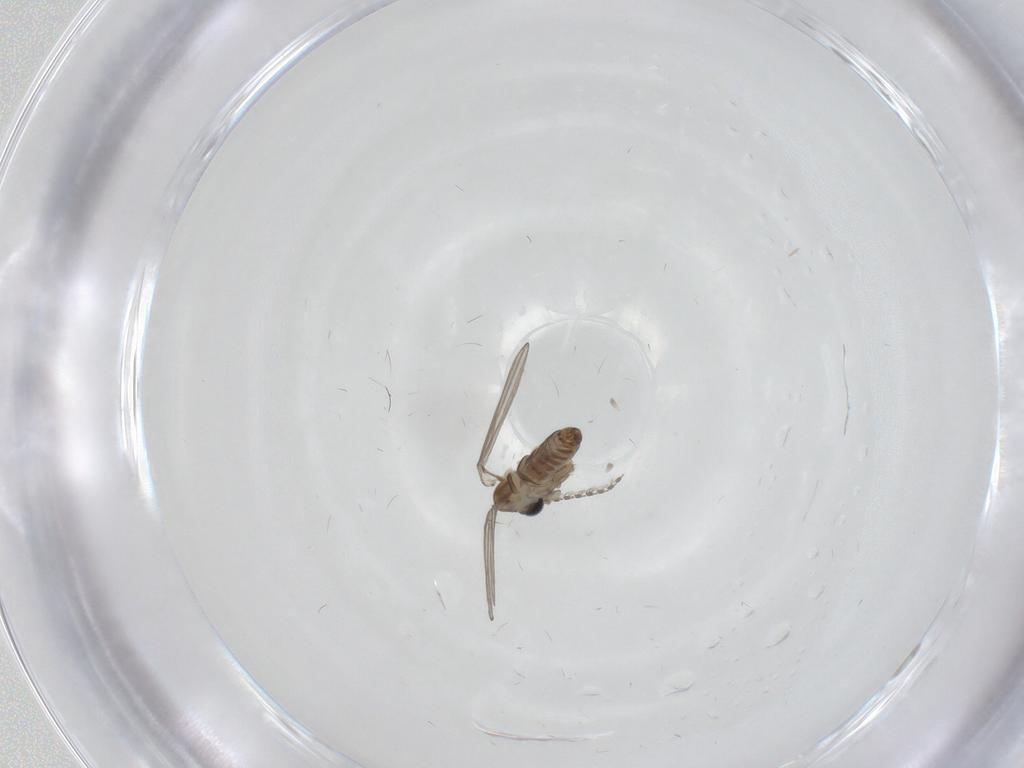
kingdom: Animalia
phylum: Arthropoda
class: Insecta
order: Diptera
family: Psychodidae
